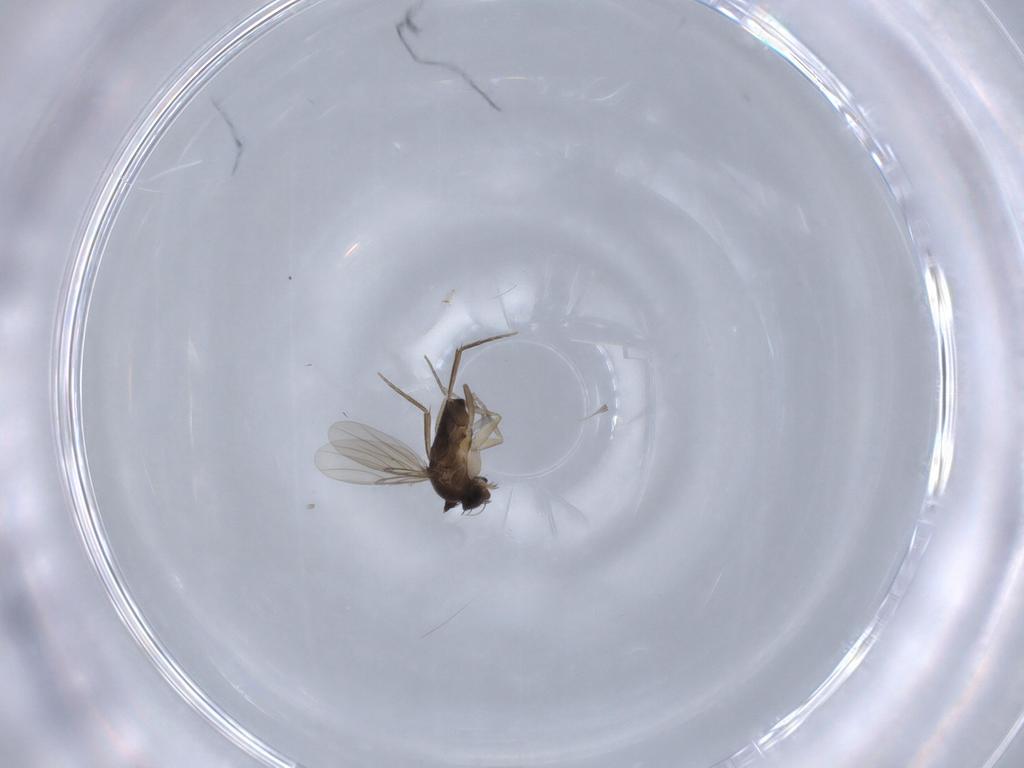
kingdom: Animalia
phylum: Arthropoda
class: Insecta
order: Diptera
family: Phoridae
